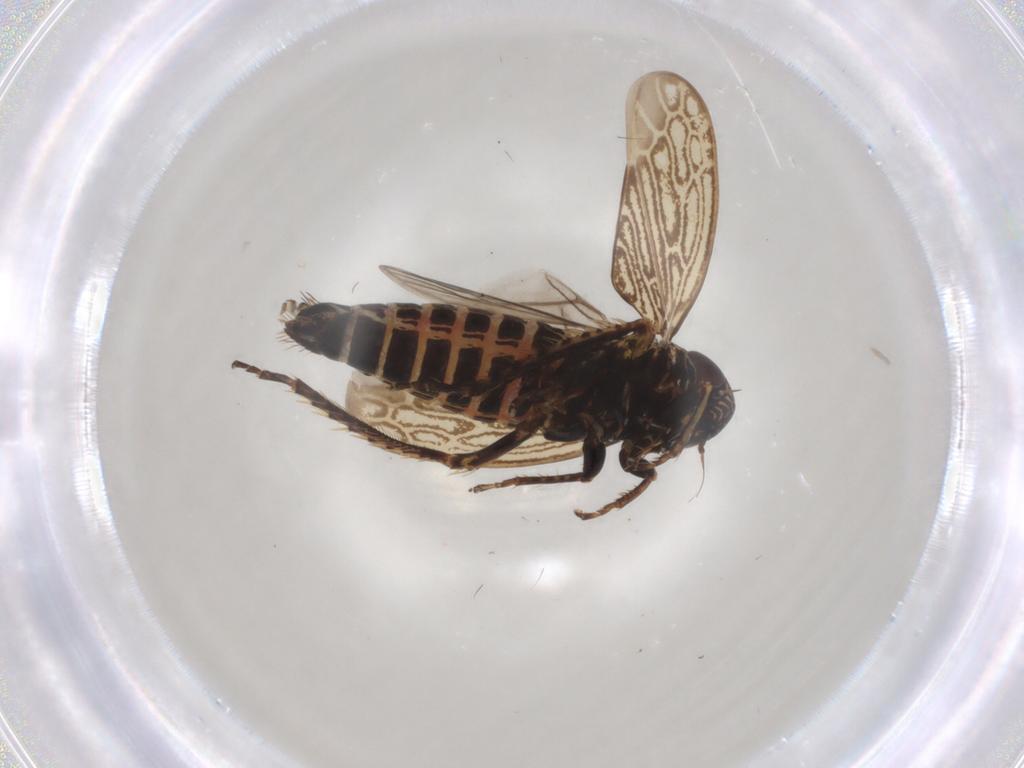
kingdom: Animalia
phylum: Arthropoda
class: Insecta
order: Hemiptera
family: Cicadellidae
